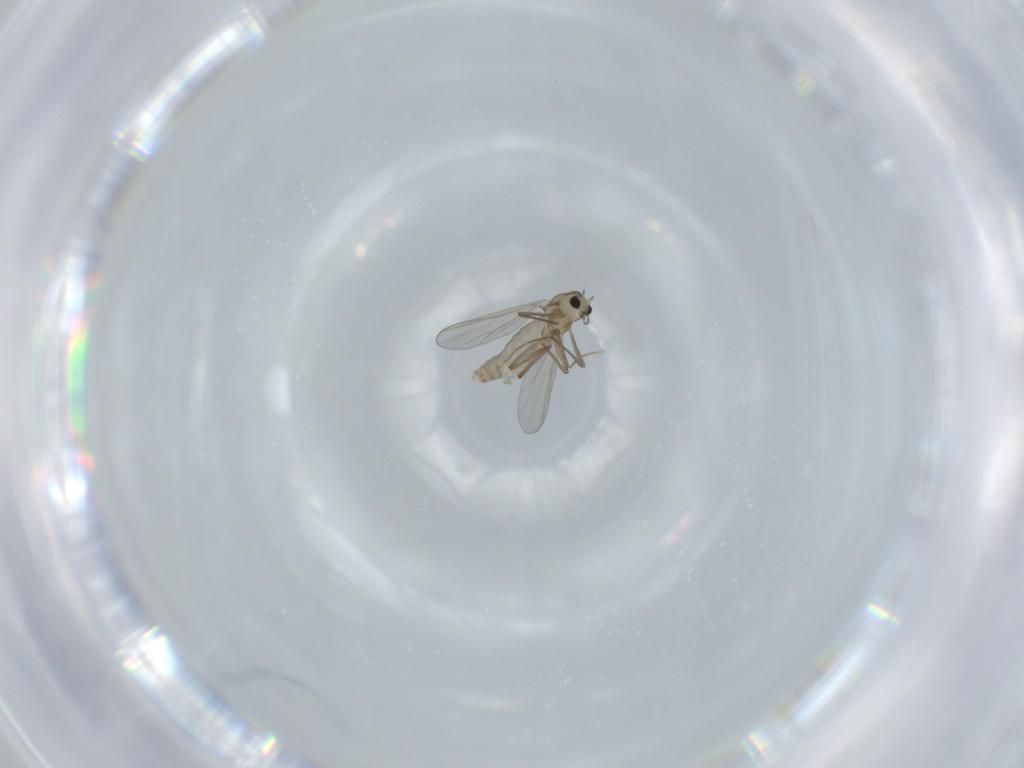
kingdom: Animalia
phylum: Arthropoda
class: Insecta
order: Diptera
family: Chironomidae
